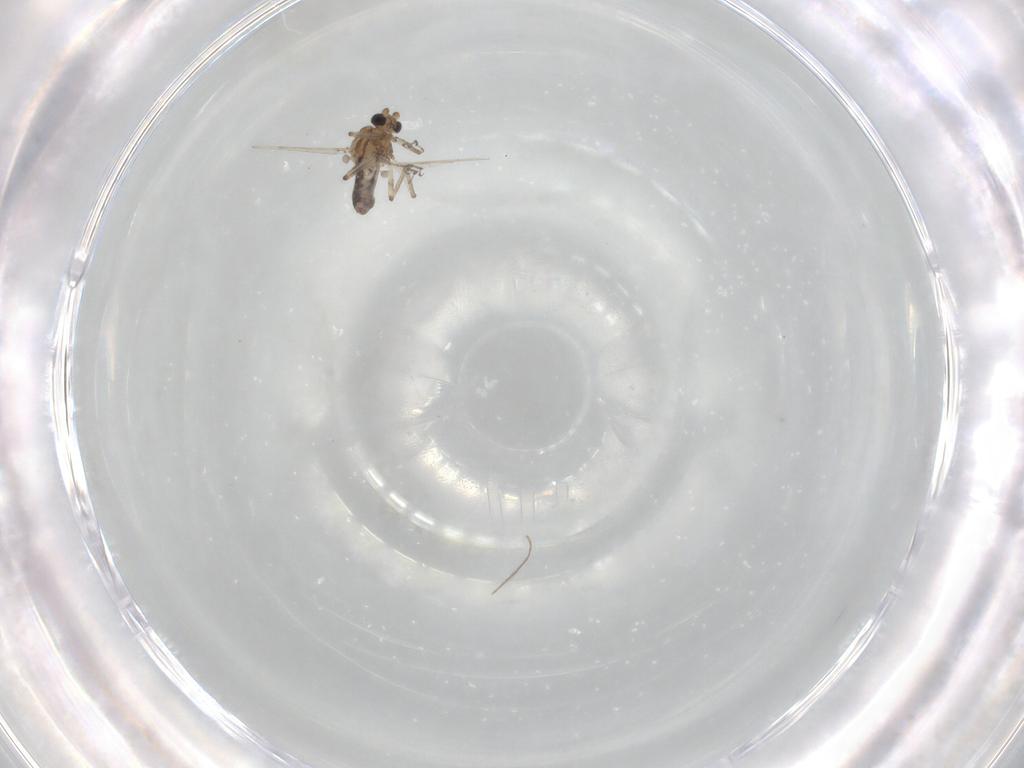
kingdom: Animalia
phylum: Arthropoda
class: Insecta
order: Diptera
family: Ceratopogonidae
